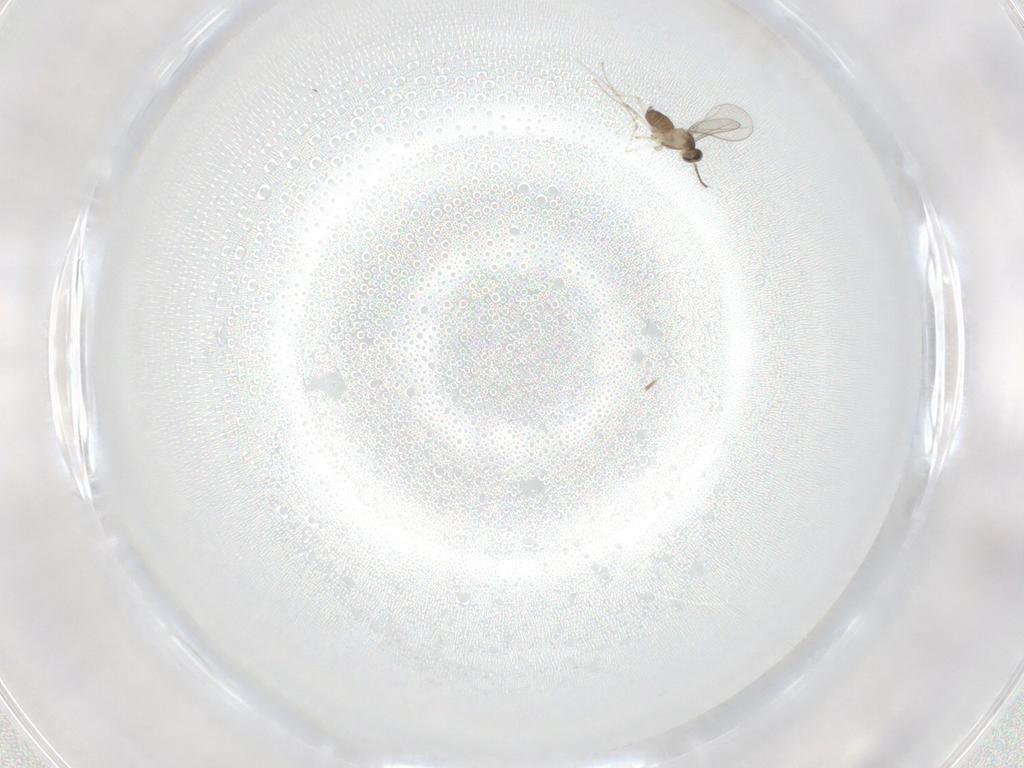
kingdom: Animalia
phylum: Arthropoda
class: Insecta
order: Diptera
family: Cecidomyiidae
